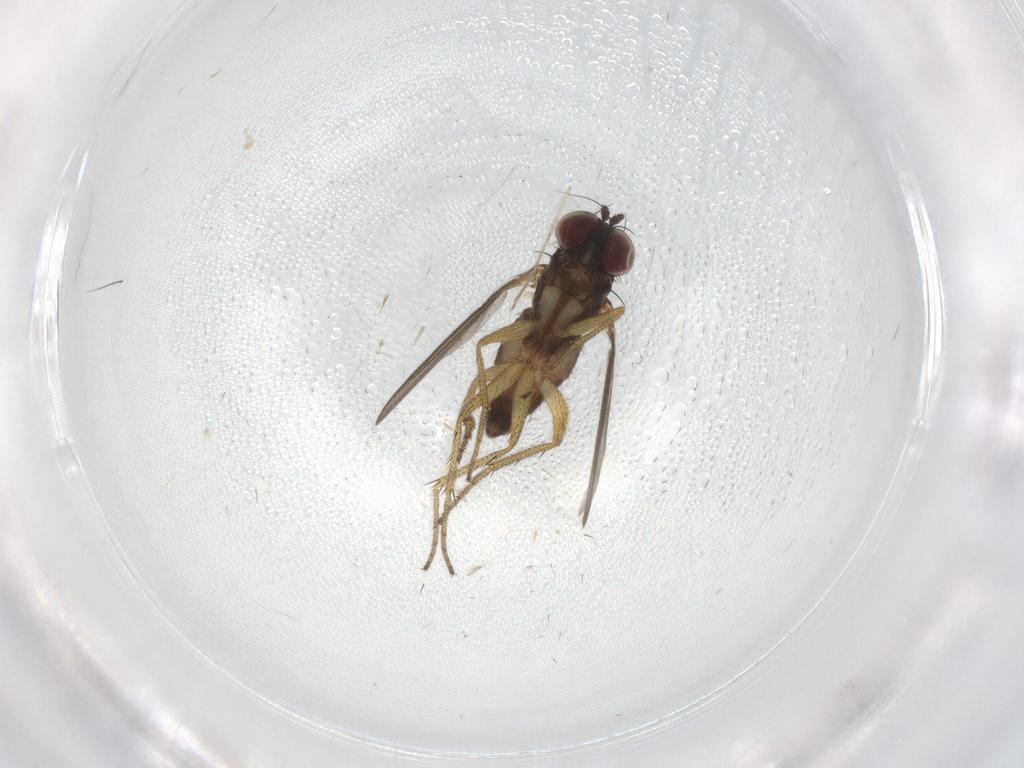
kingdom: Animalia
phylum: Arthropoda
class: Insecta
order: Diptera
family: Dolichopodidae
